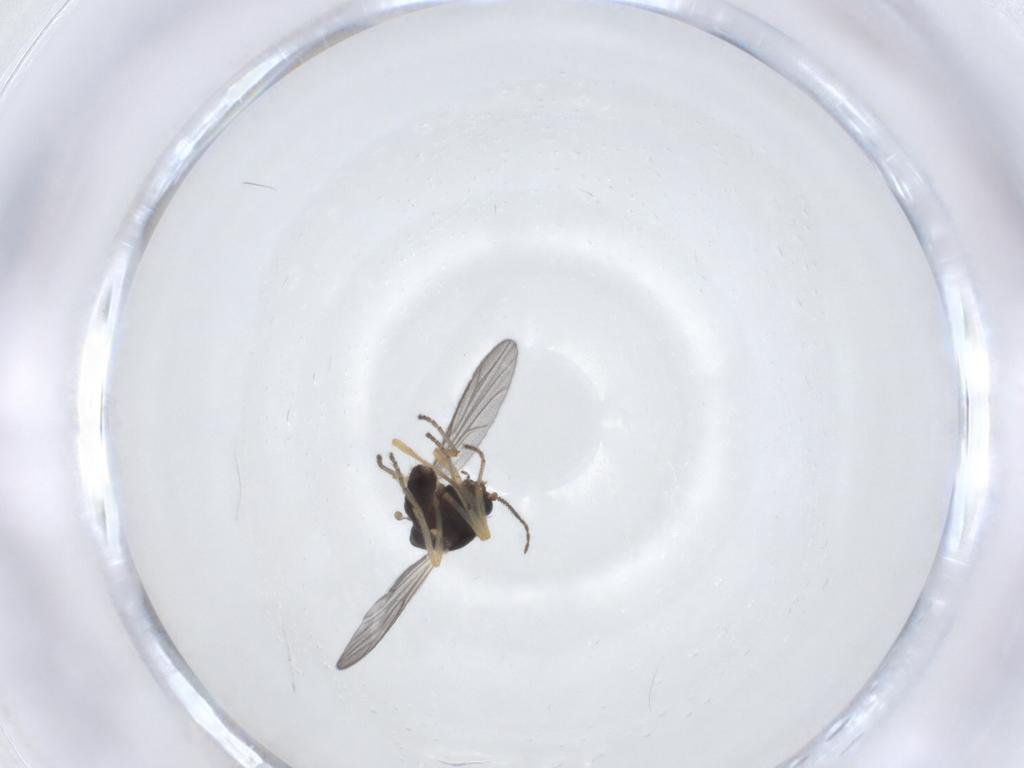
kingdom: Animalia
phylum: Arthropoda
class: Insecta
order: Diptera
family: Ceratopogonidae
